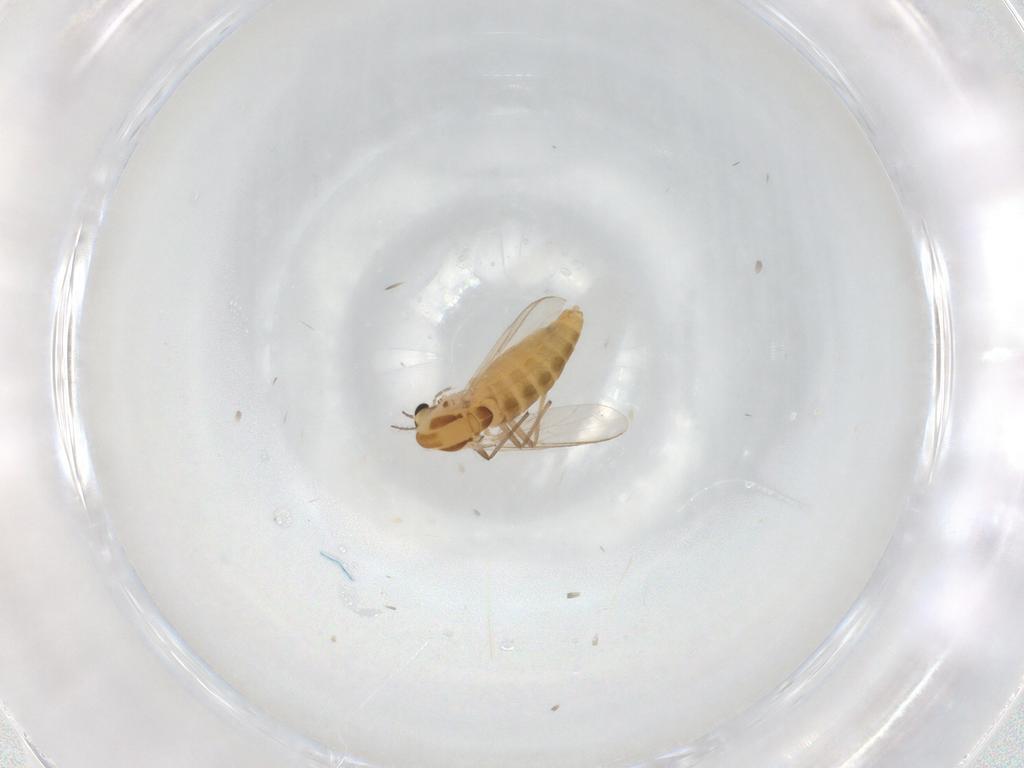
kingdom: Animalia
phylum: Arthropoda
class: Insecta
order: Diptera
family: Chironomidae
